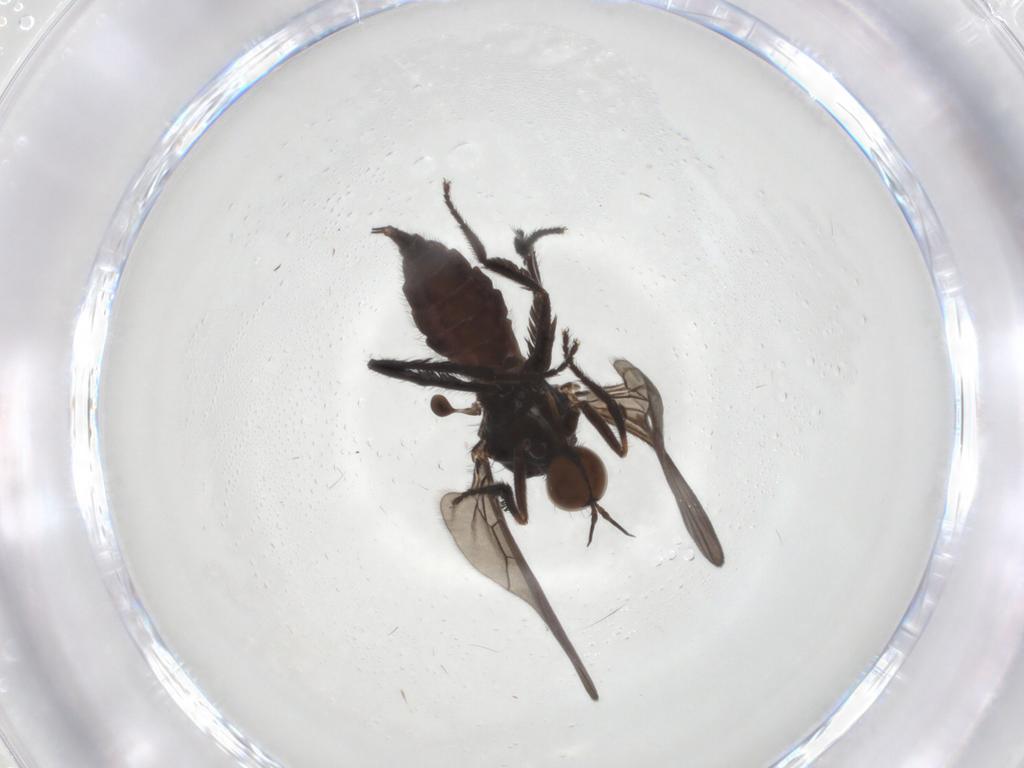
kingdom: Animalia
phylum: Arthropoda
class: Insecta
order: Diptera
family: Empididae
